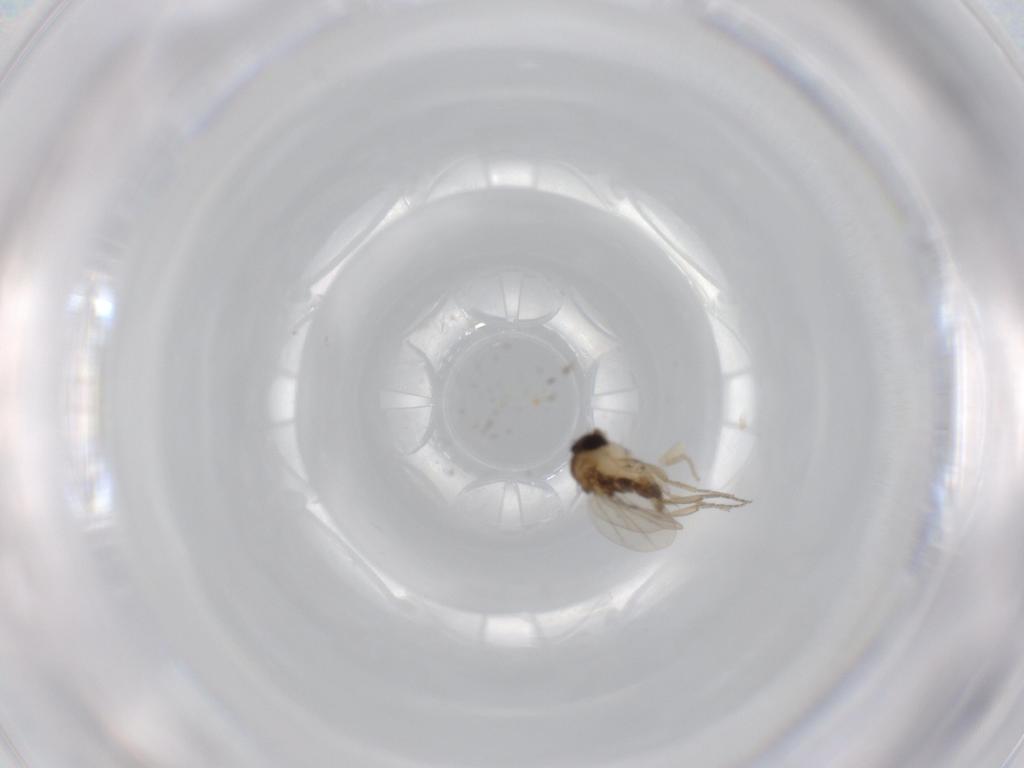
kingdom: Animalia
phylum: Arthropoda
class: Insecta
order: Diptera
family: Phoridae
